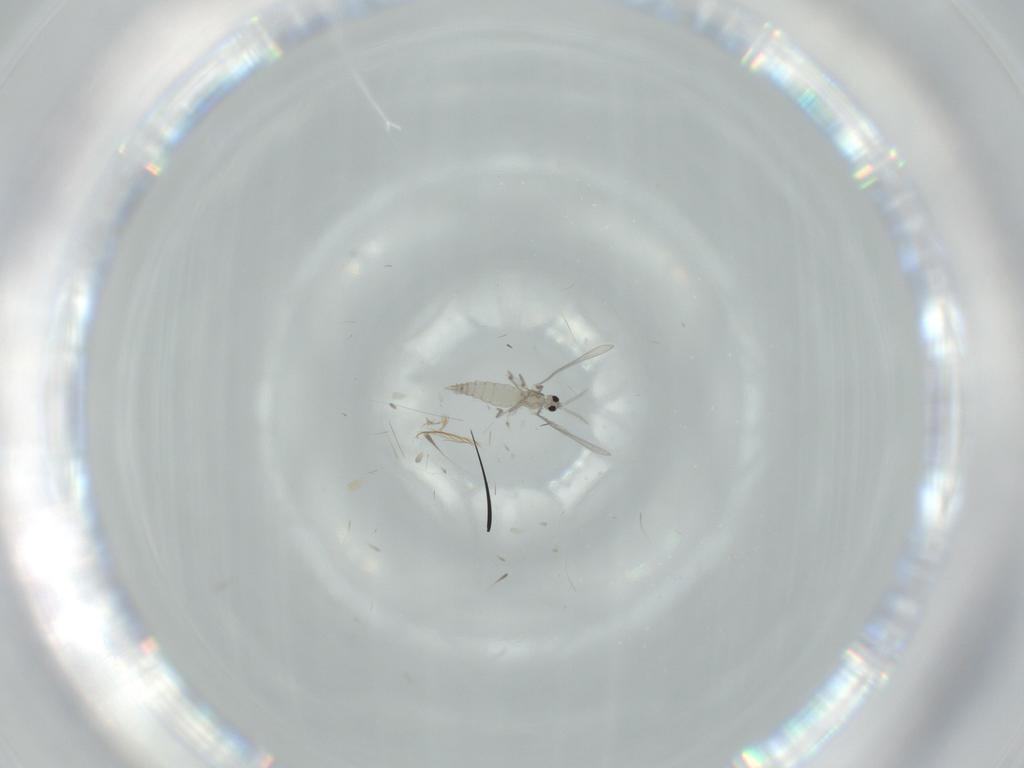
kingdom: Animalia
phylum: Arthropoda
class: Insecta
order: Diptera
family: Cecidomyiidae
